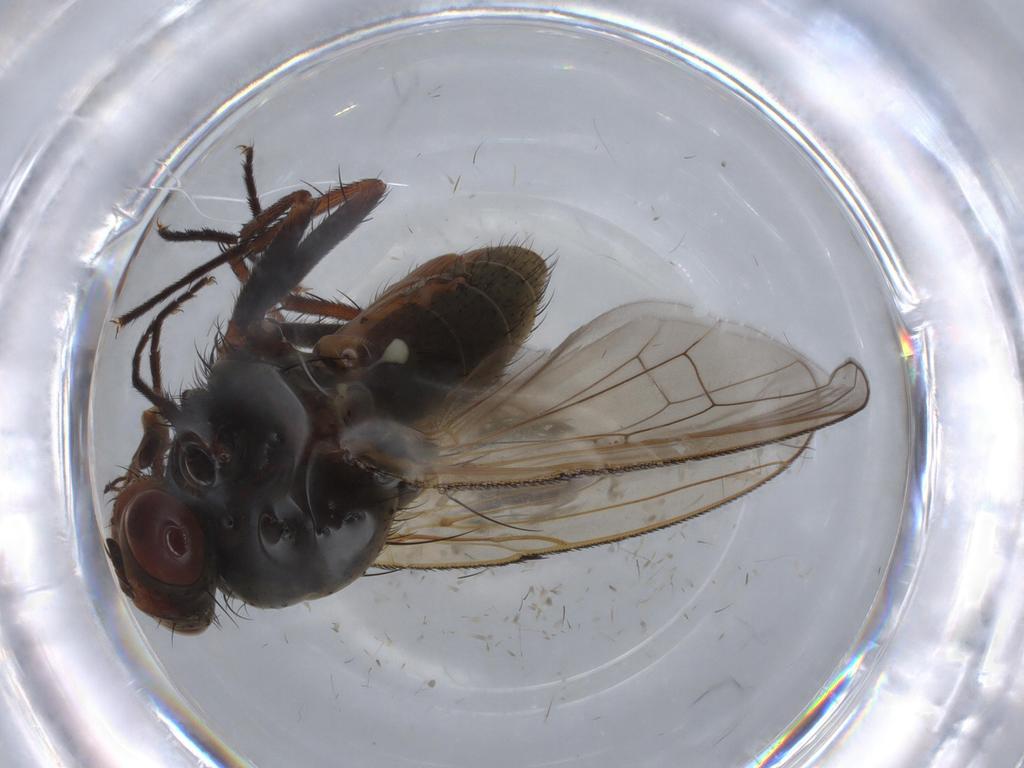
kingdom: Animalia
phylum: Arthropoda
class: Insecta
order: Diptera
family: Anthomyiidae
